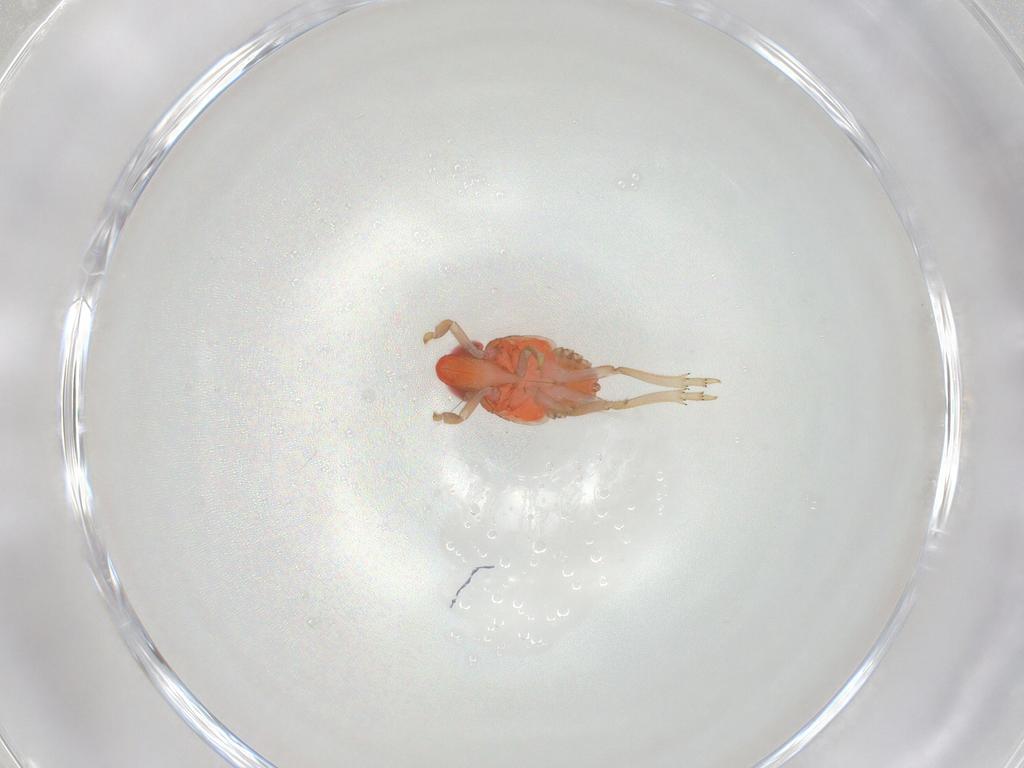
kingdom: Animalia
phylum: Arthropoda
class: Insecta
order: Hemiptera
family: Issidae
